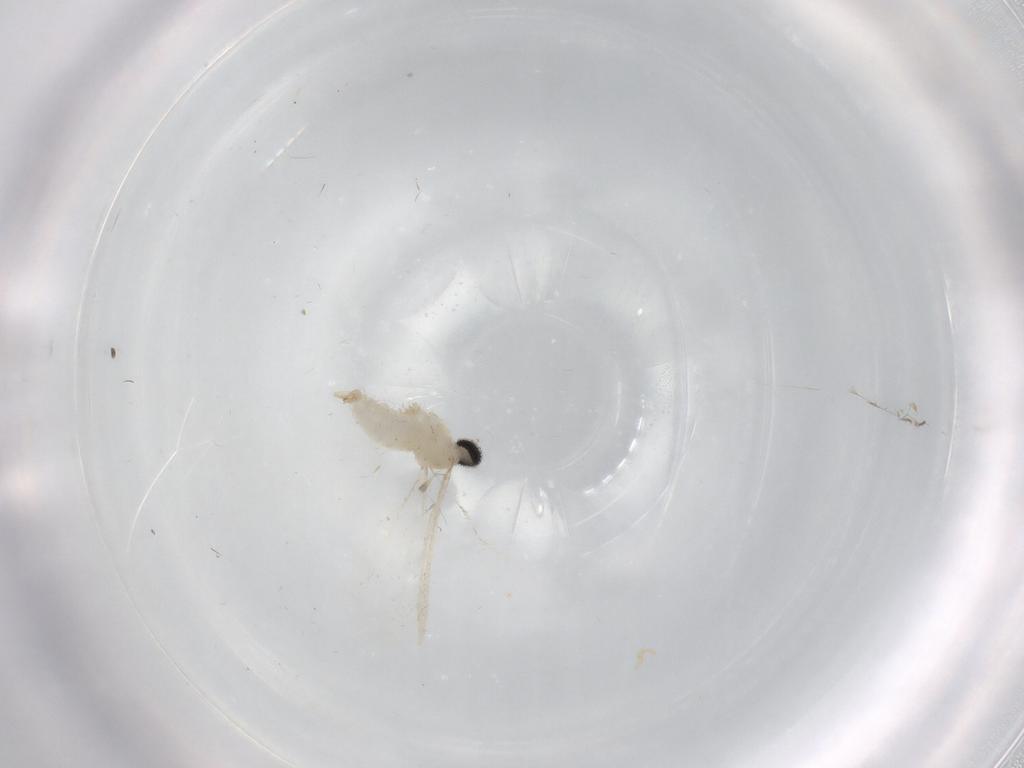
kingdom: Animalia
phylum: Arthropoda
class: Insecta
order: Diptera
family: Cecidomyiidae
